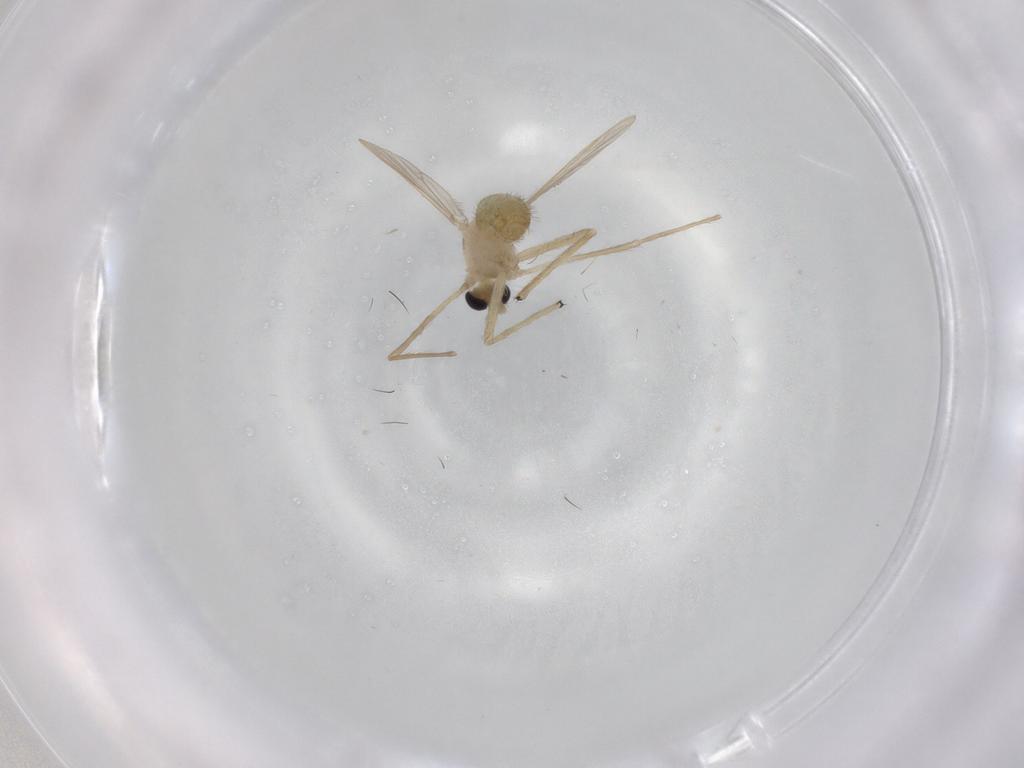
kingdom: Animalia
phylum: Arthropoda
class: Insecta
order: Diptera
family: Chironomidae
